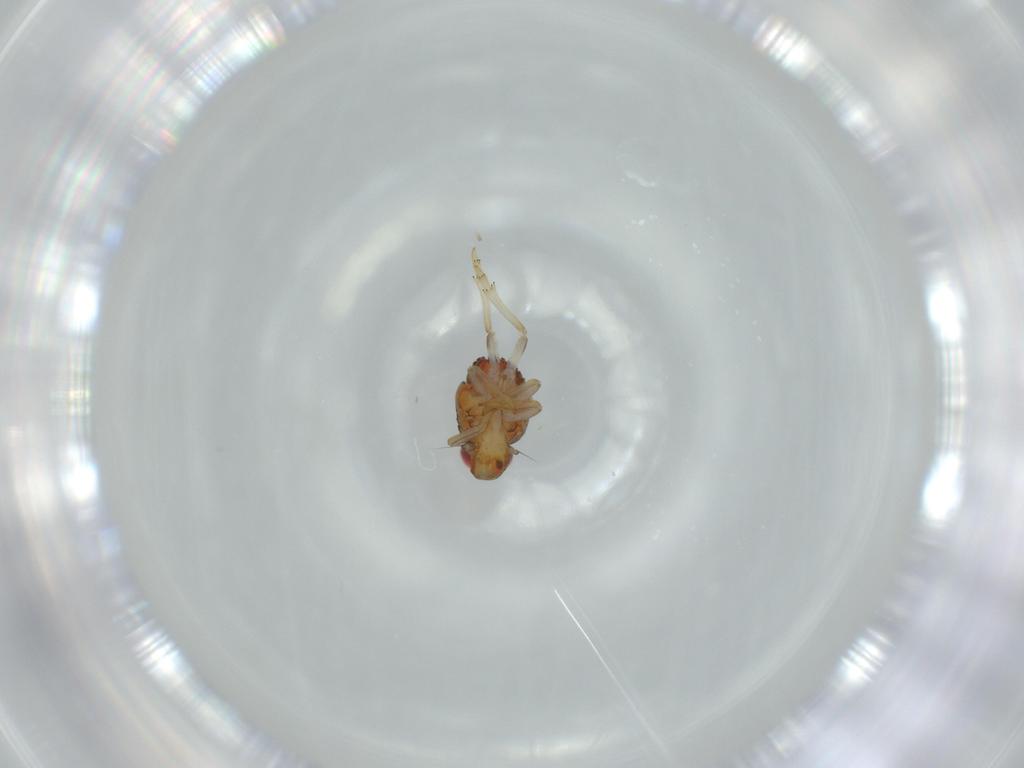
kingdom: Animalia
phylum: Arthropoda
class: Insecta
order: Hemiptera
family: Issidae
